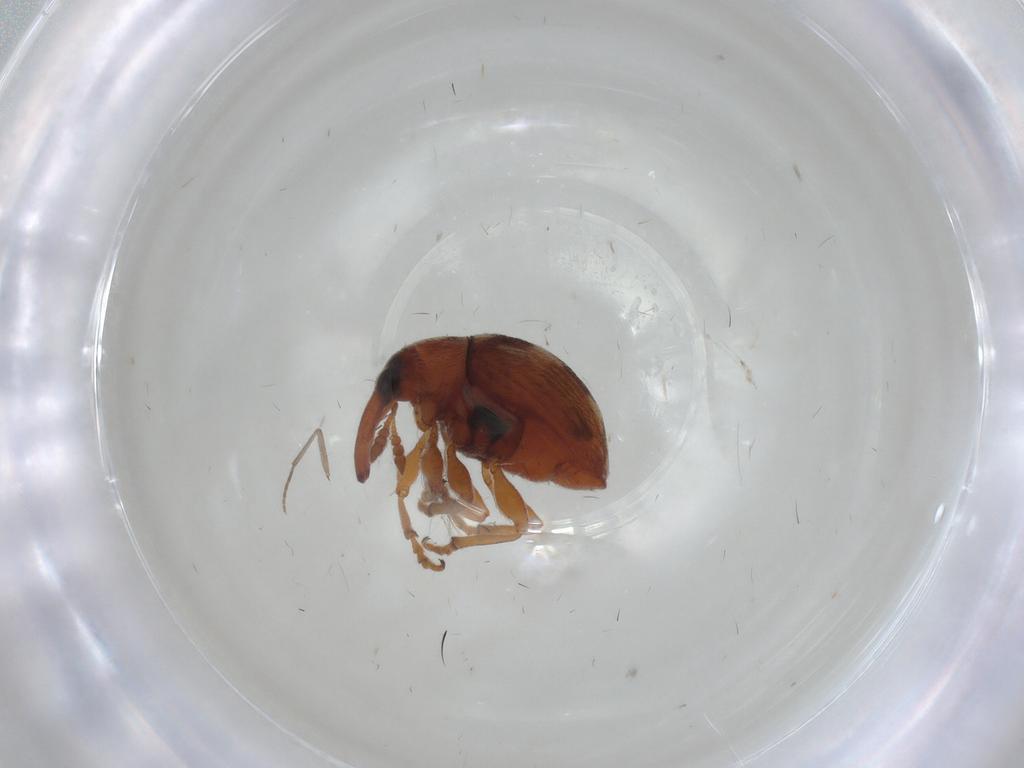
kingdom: Animalia
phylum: Arthropoda
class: Insecta
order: Coleoptera
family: Brentidae
